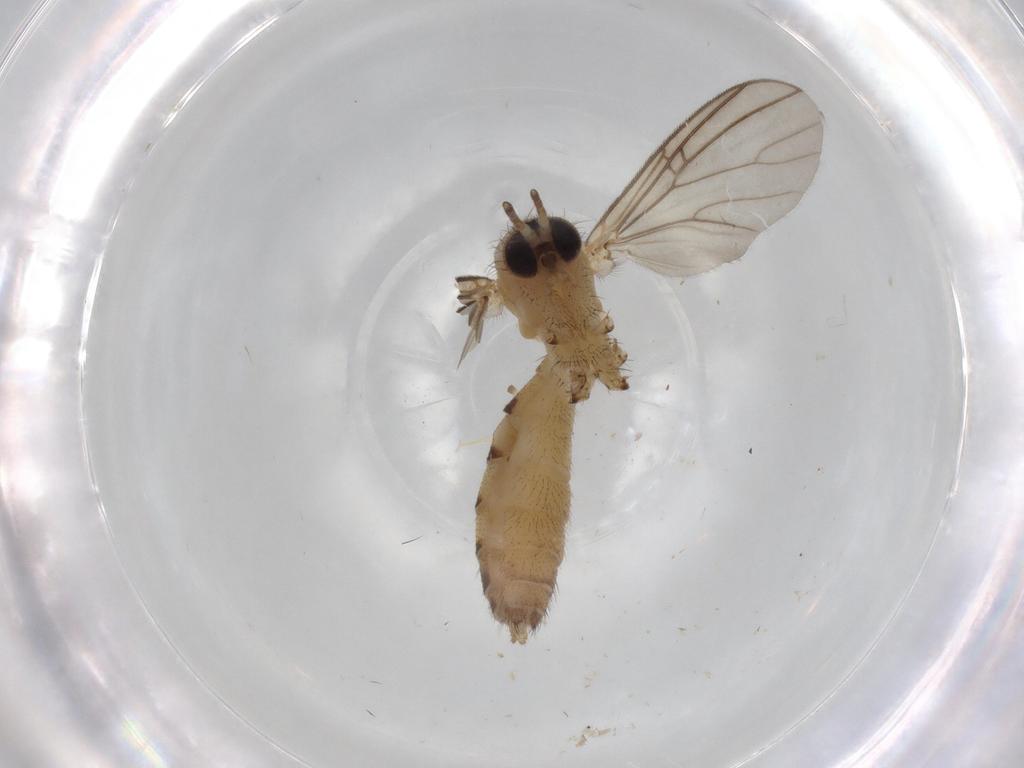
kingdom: Animalia
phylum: Arthropoda
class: Insecta
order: Diptera
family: Mycetophilidae
